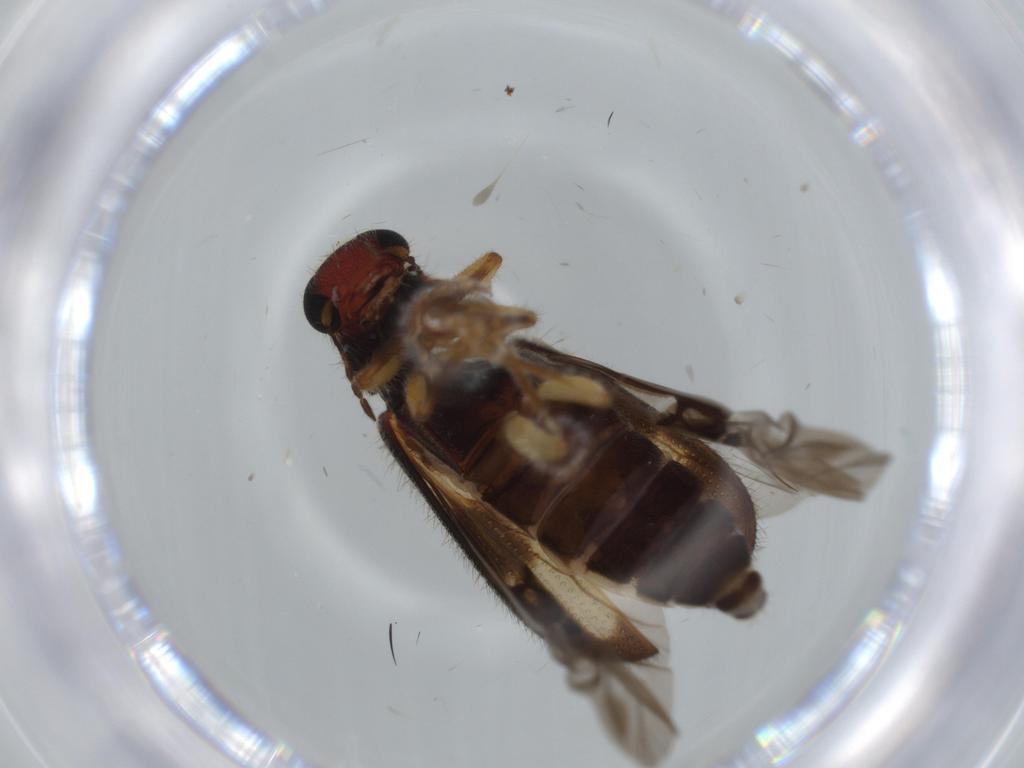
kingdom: Animalia
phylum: Arthropoda
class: Insecta
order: Coleoptera
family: Cleridae
